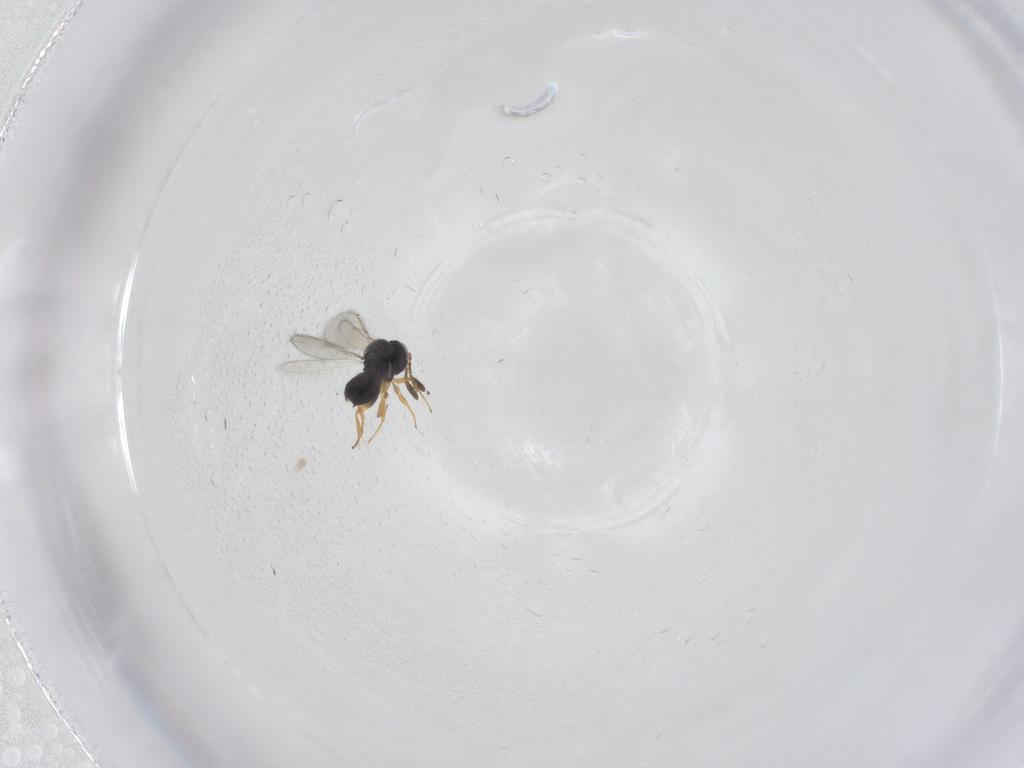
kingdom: Animalia
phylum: Arthropoda
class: Insecta
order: Hymenoptera
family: Scelionidae
